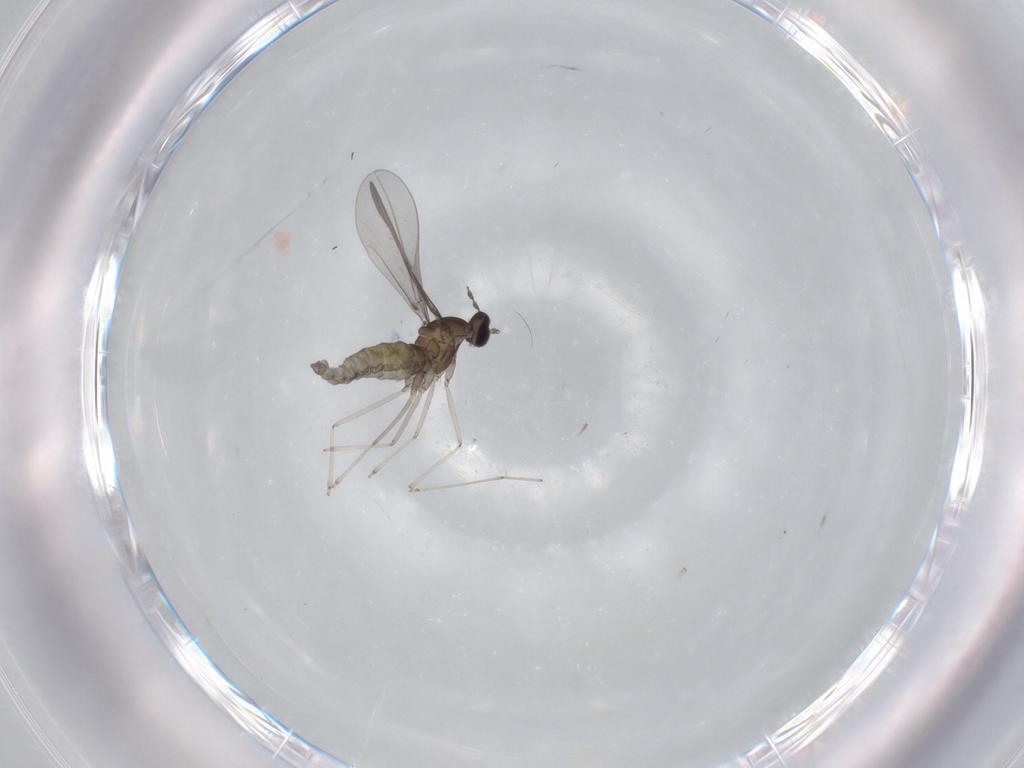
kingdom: Animalia
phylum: Arthropoda
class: Insecta
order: Diptera
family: Cecidomyiidae
